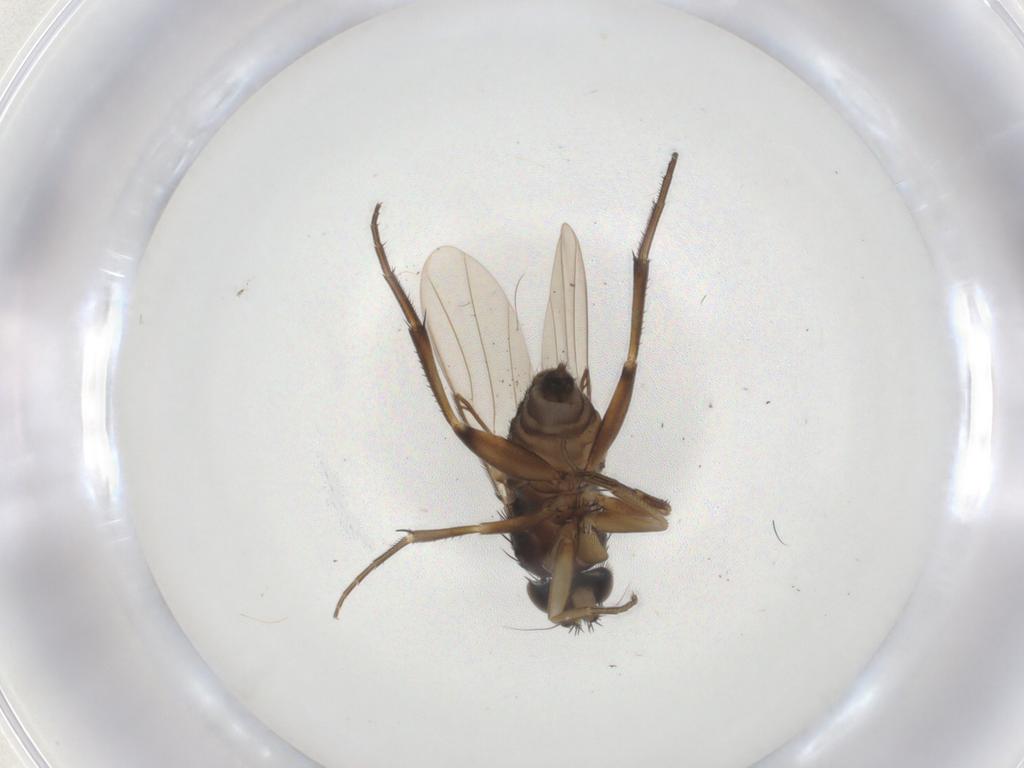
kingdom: Animalia
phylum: Arthropoda
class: Insecta
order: Diptera
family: Phoridae
